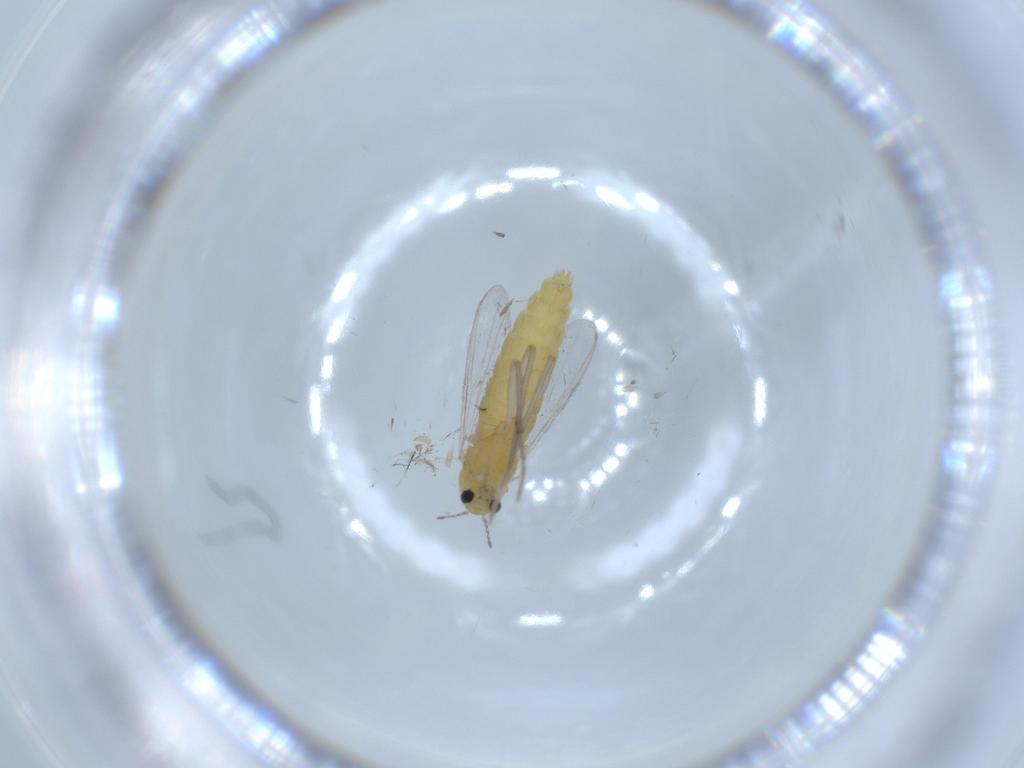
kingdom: Animalia
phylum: Arthropoda
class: Insecta
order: Diptera
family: Chironomidae
